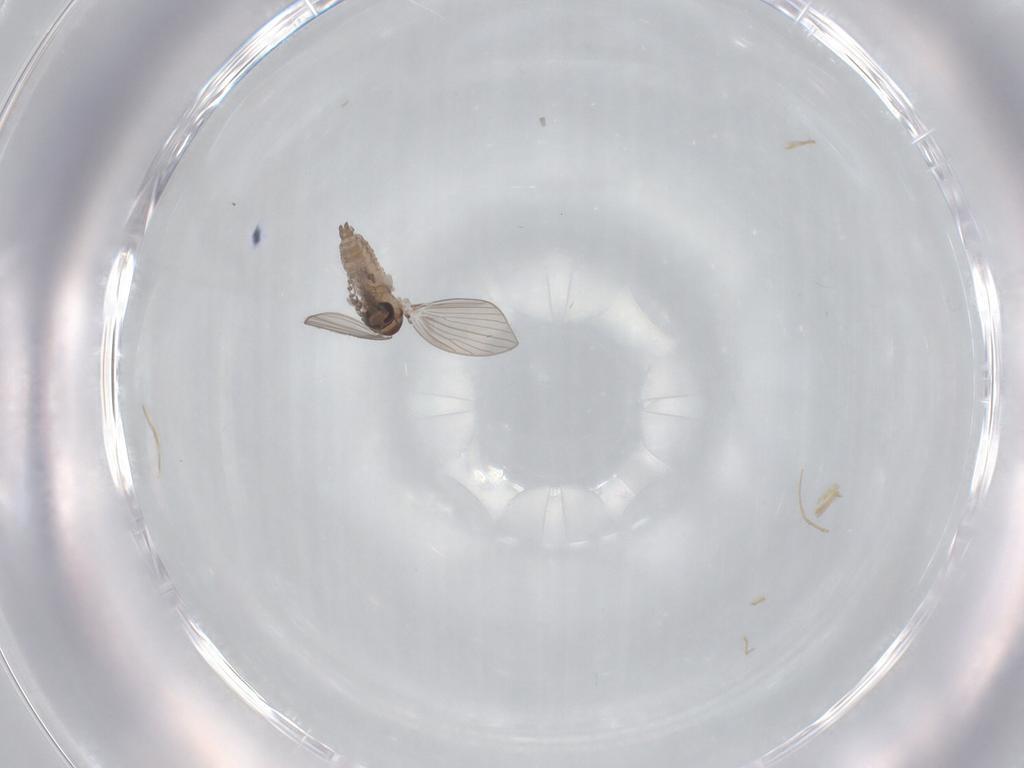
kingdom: Animalia
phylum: Arthropoda
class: Insecta
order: Diptera
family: Psychodidae
